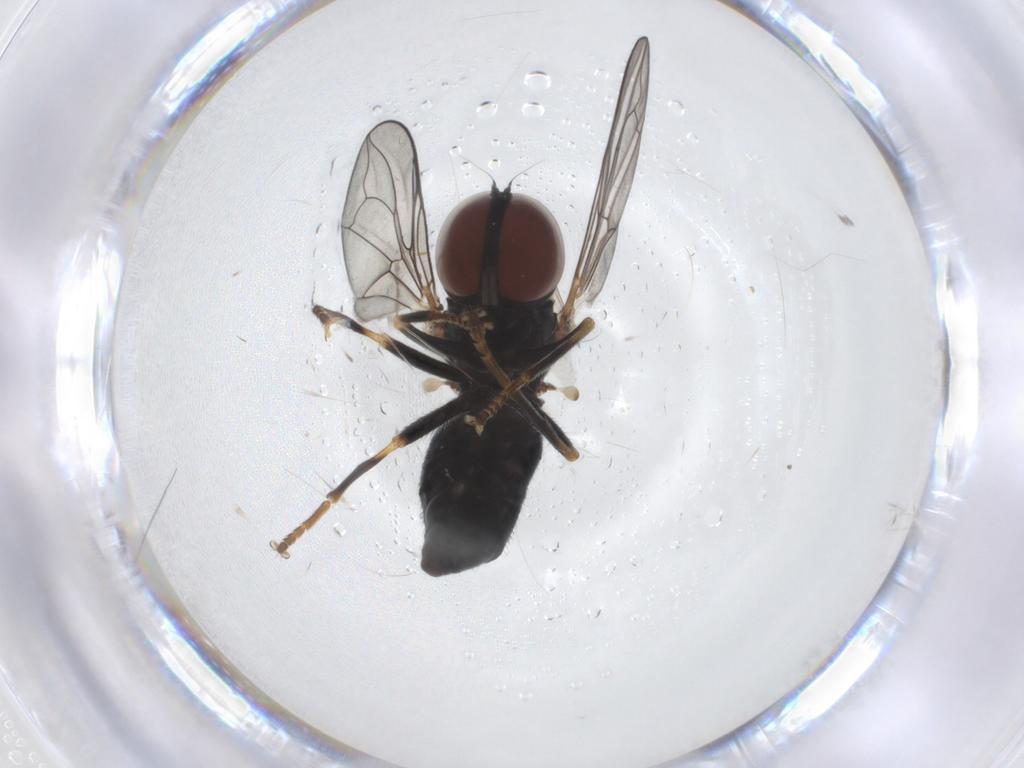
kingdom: Animalia
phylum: Arthropoda
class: Insecta
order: Diptera
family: Pipunculidae
